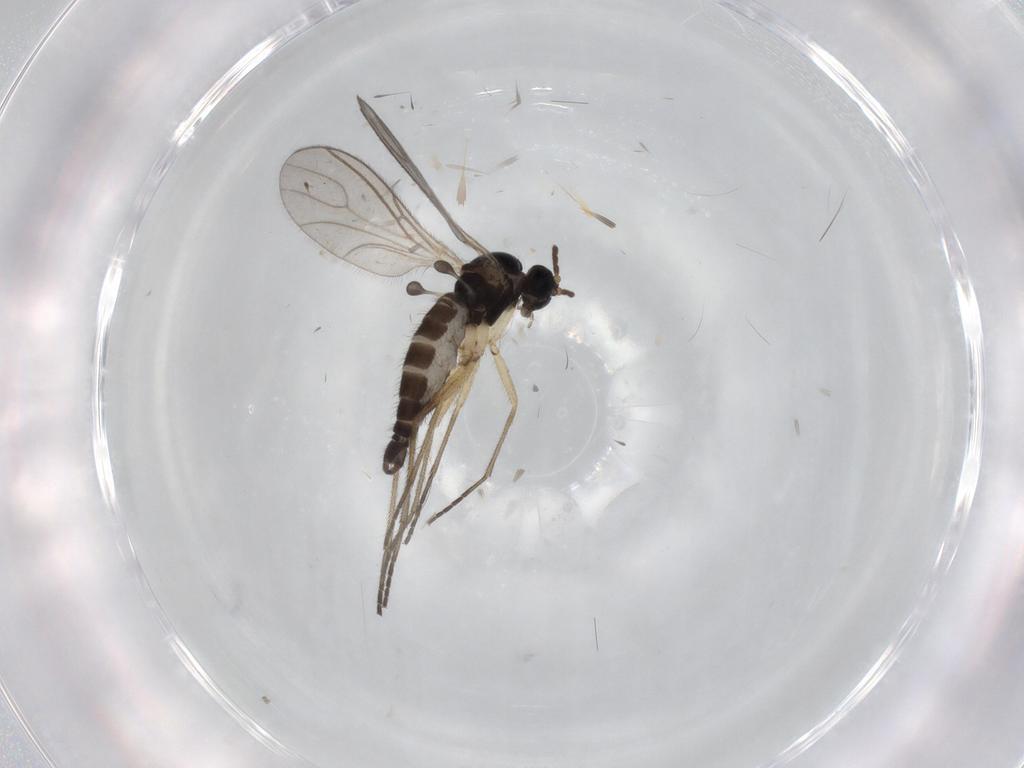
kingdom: Animalia
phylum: Arthropoda
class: Insecta
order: Diptera
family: Sciaridae
